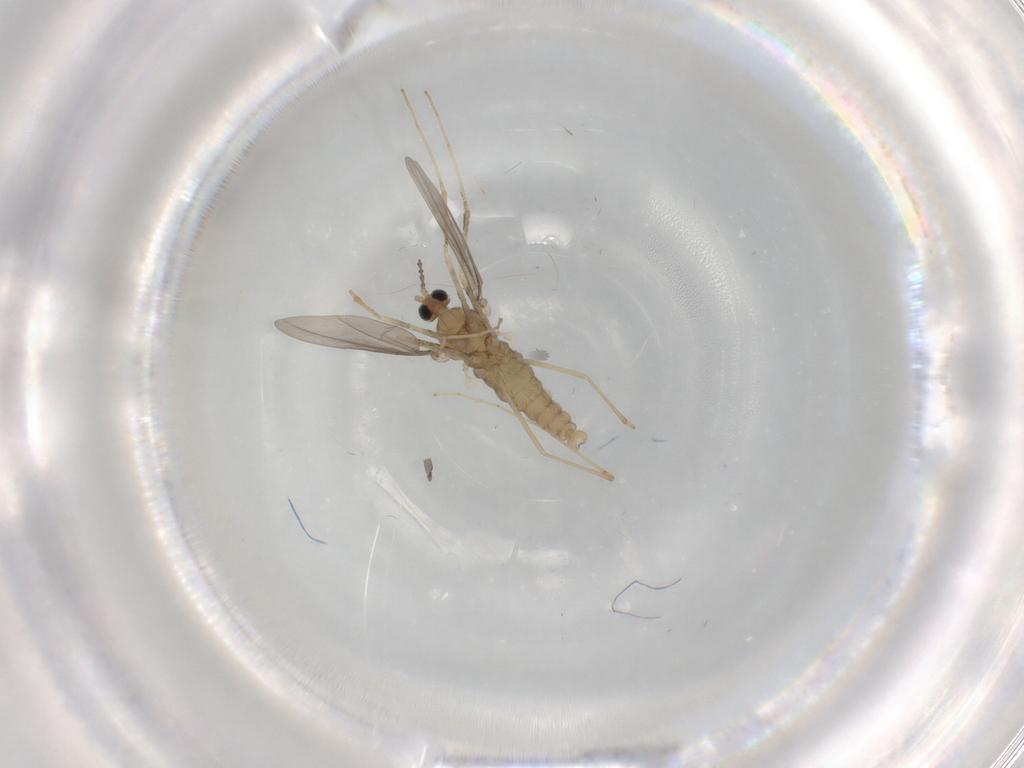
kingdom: Animalia
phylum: Arthropoda
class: Insecta
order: Diptera
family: Cecidomyiidae
